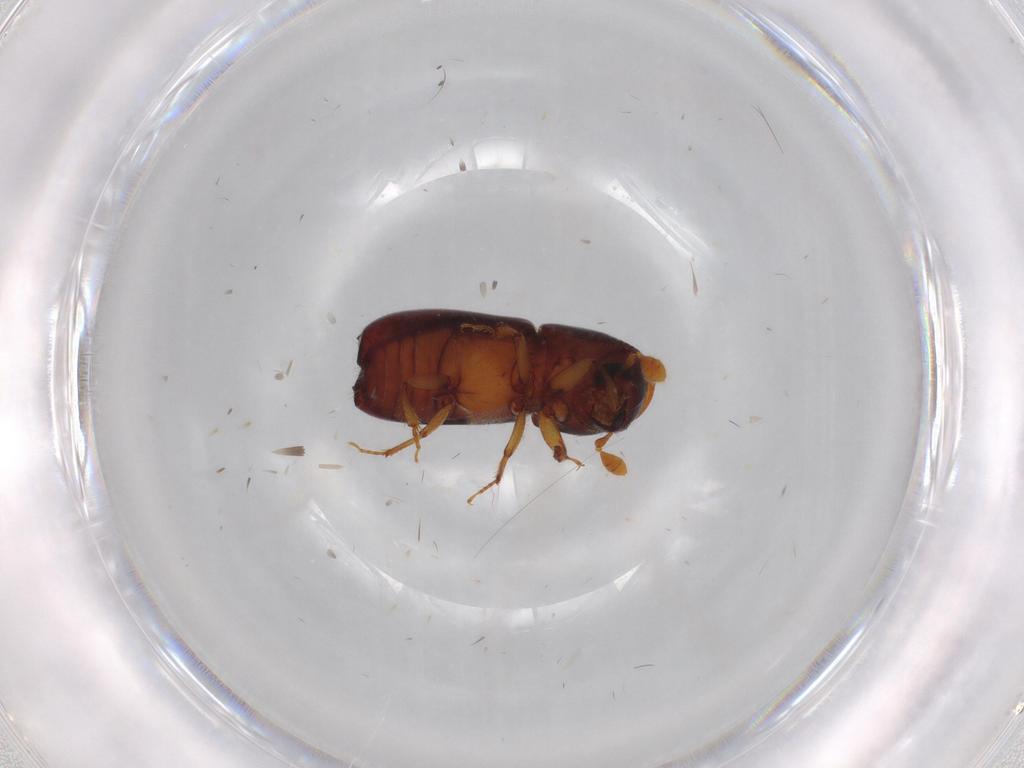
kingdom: Animalia
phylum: Arthropoda
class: Insecta
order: Coleoptera
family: Curculionidae
